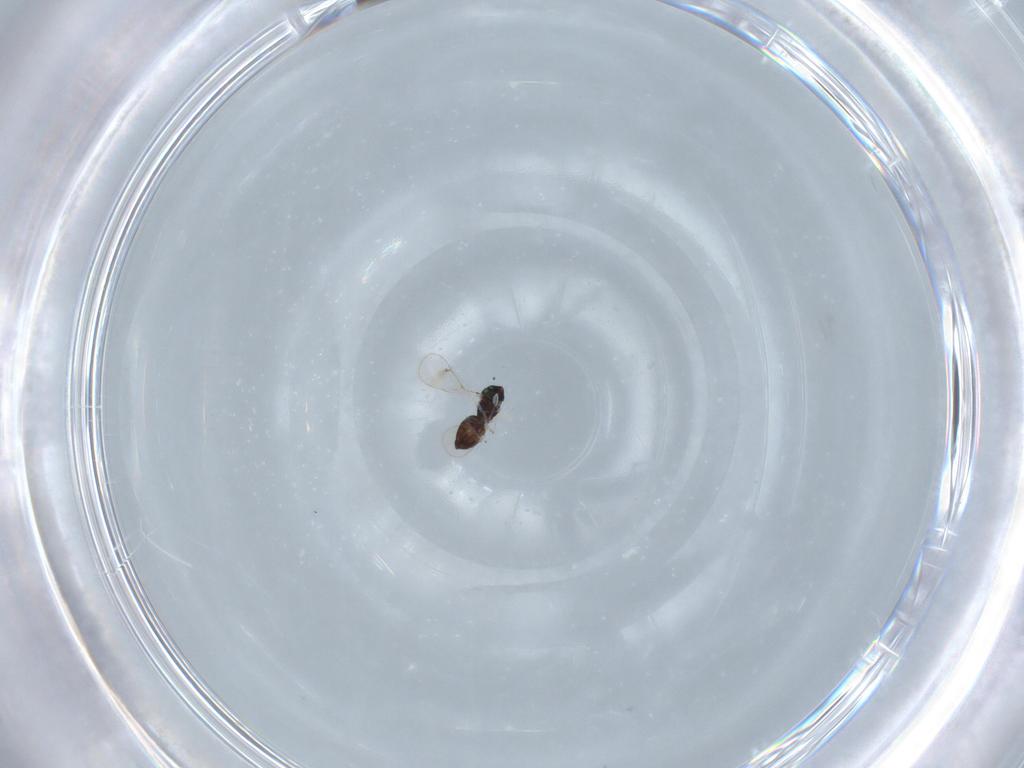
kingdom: Animalia
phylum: Arthropoda
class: Insecta
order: Hymenoptera
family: Eulophidae
